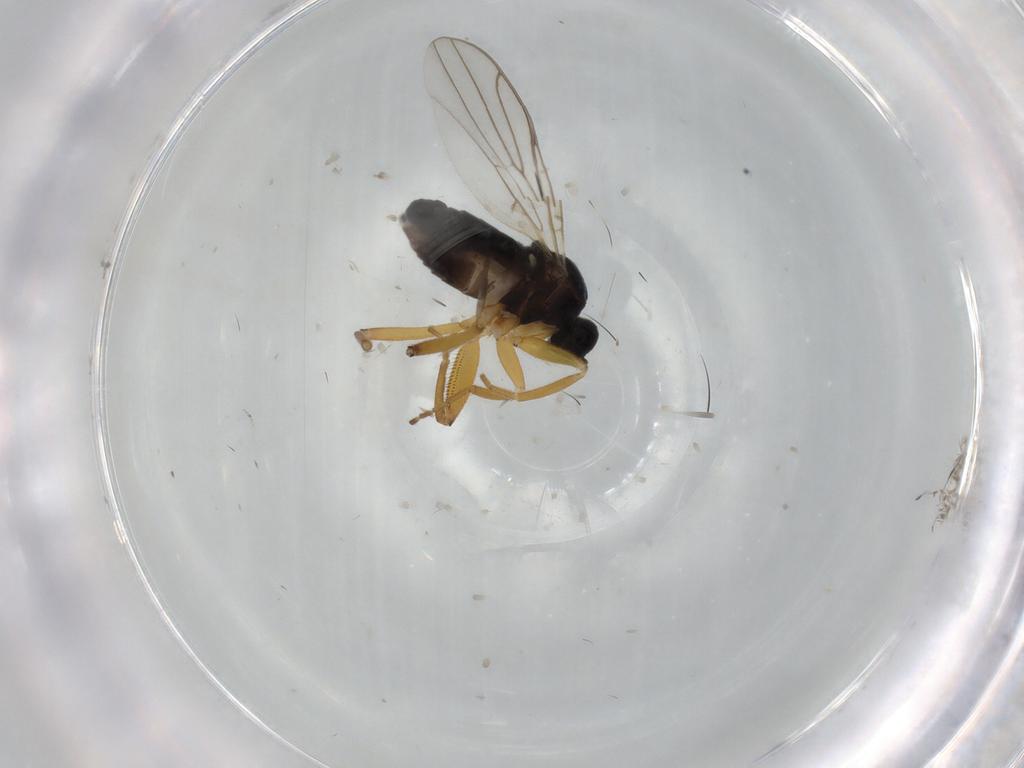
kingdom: Animalia
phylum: Arthropoda
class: Insecta
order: Diptera
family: Hybotidae
